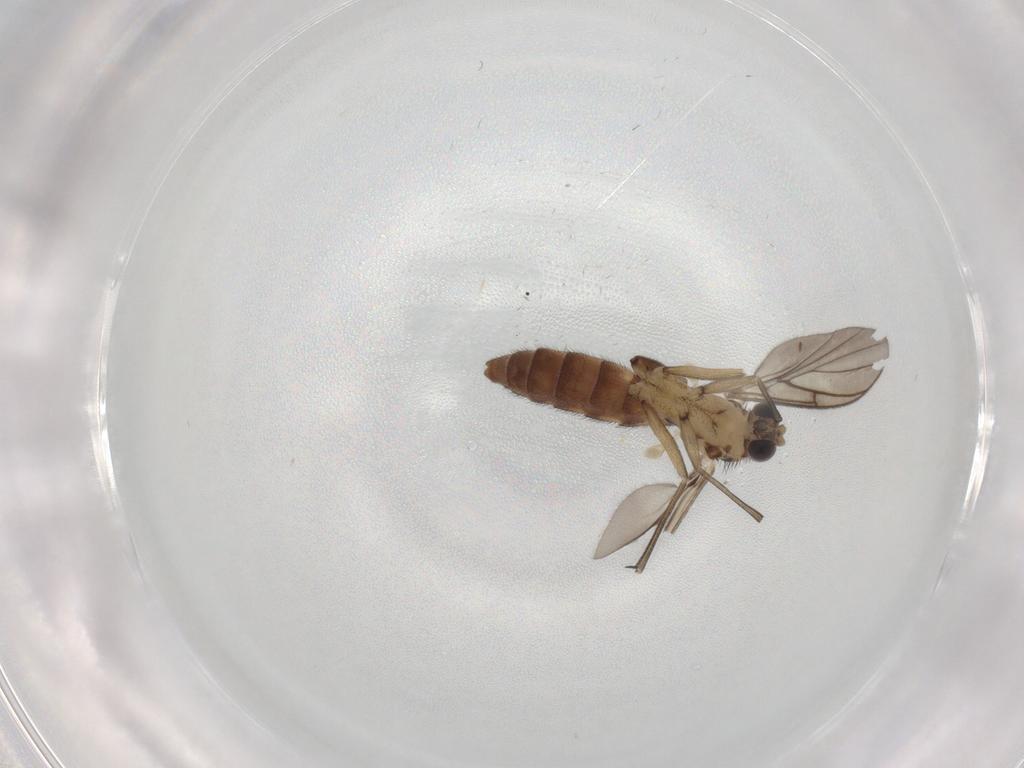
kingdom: Animalia
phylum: Arthropoda
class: Insecta
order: Diptera
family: Keroplatidae
